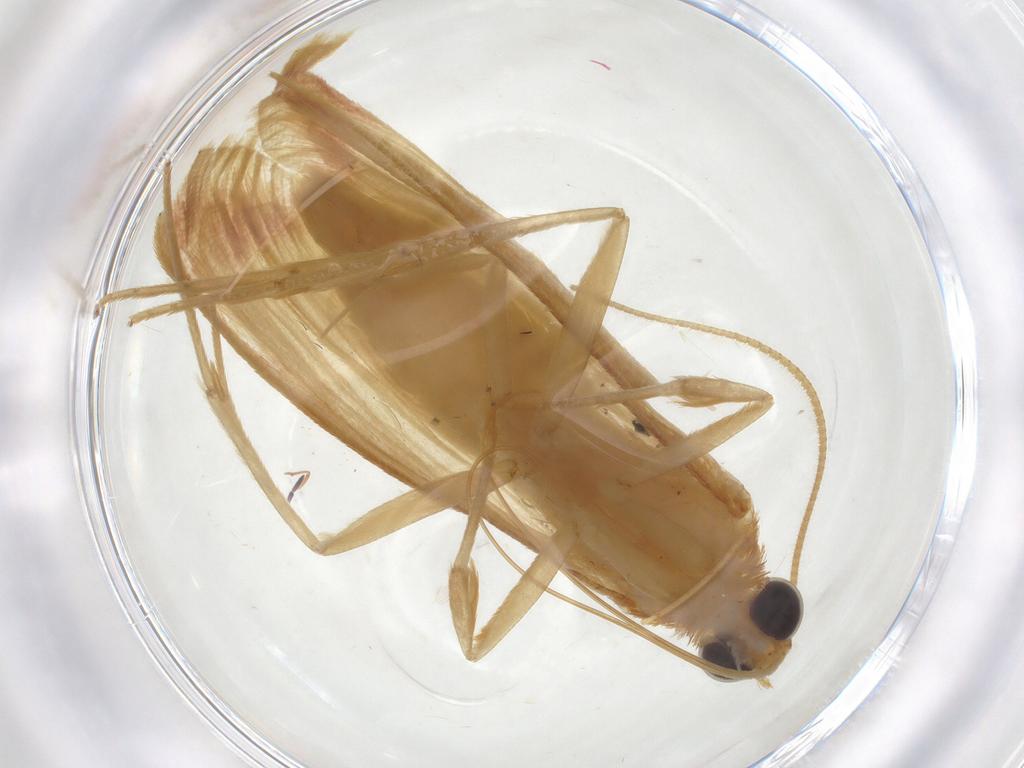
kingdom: Animalia
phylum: Arthropoda
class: Insecta
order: Lepidoptera
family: Crambidae
